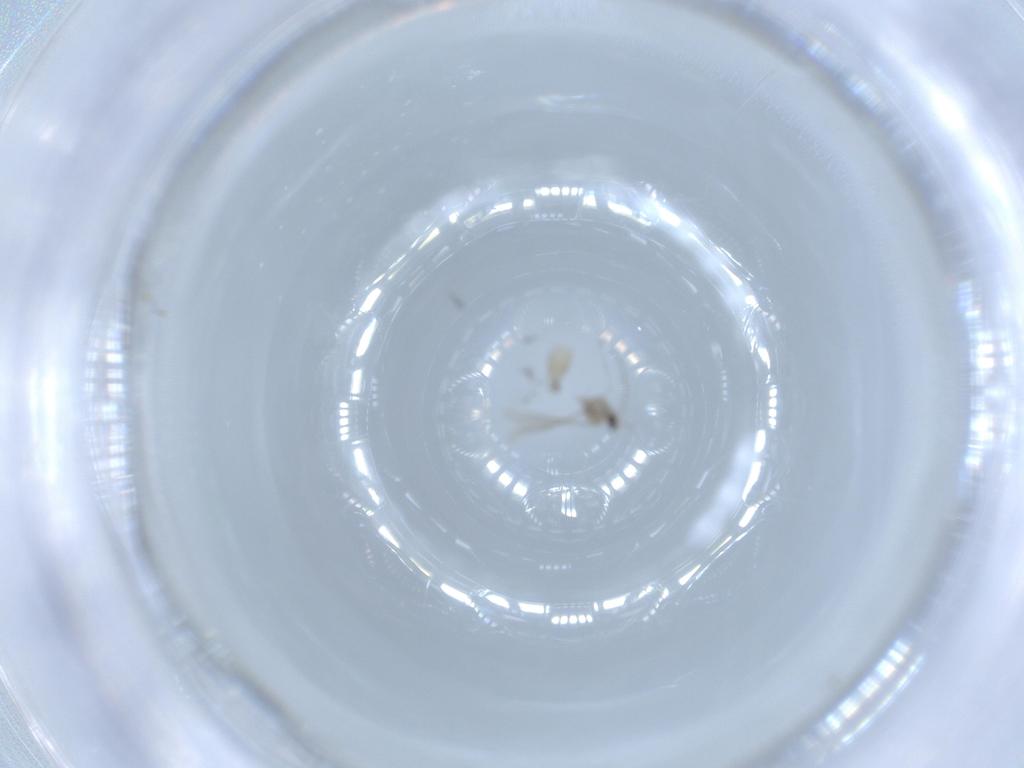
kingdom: Animalia
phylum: Arthropoda
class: Insecta
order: Diptera
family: Cecidomyiidae
